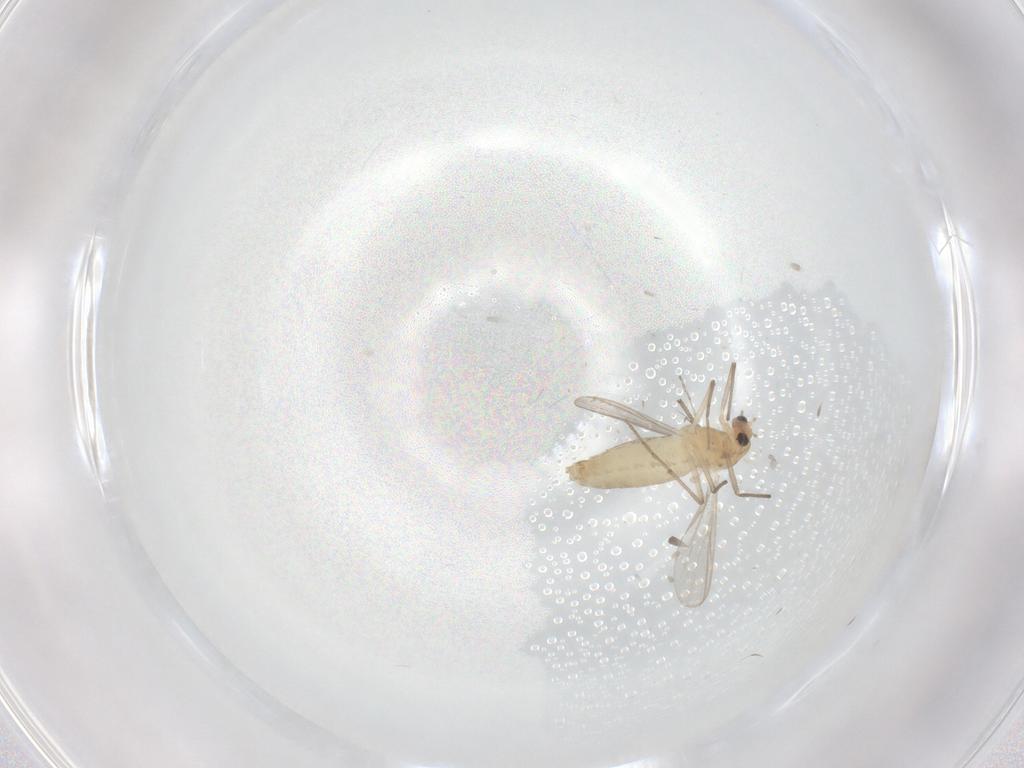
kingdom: Animalia
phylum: Arthropoda
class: Insecta
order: Diptera
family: Chironomidae
